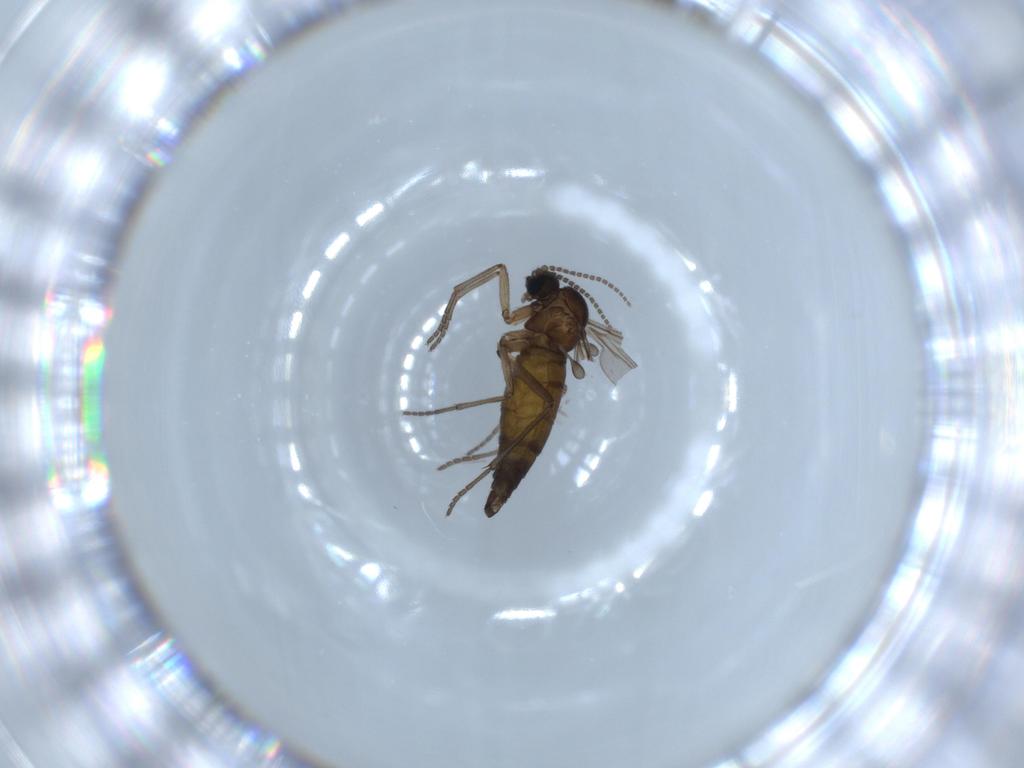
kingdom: Animalia
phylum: Arthropoda
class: Insecta
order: Diptera
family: Sciaridae
